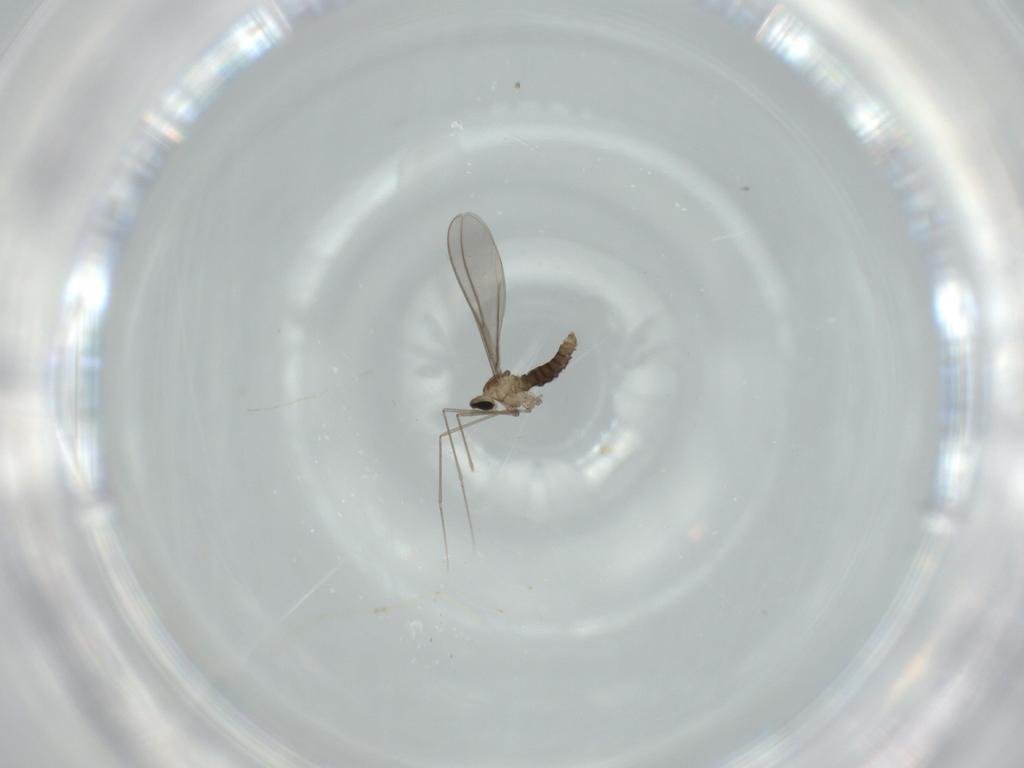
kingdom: Animalia
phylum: Arthropoda
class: Insecta
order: Diptera
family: Cecidomyiidae
